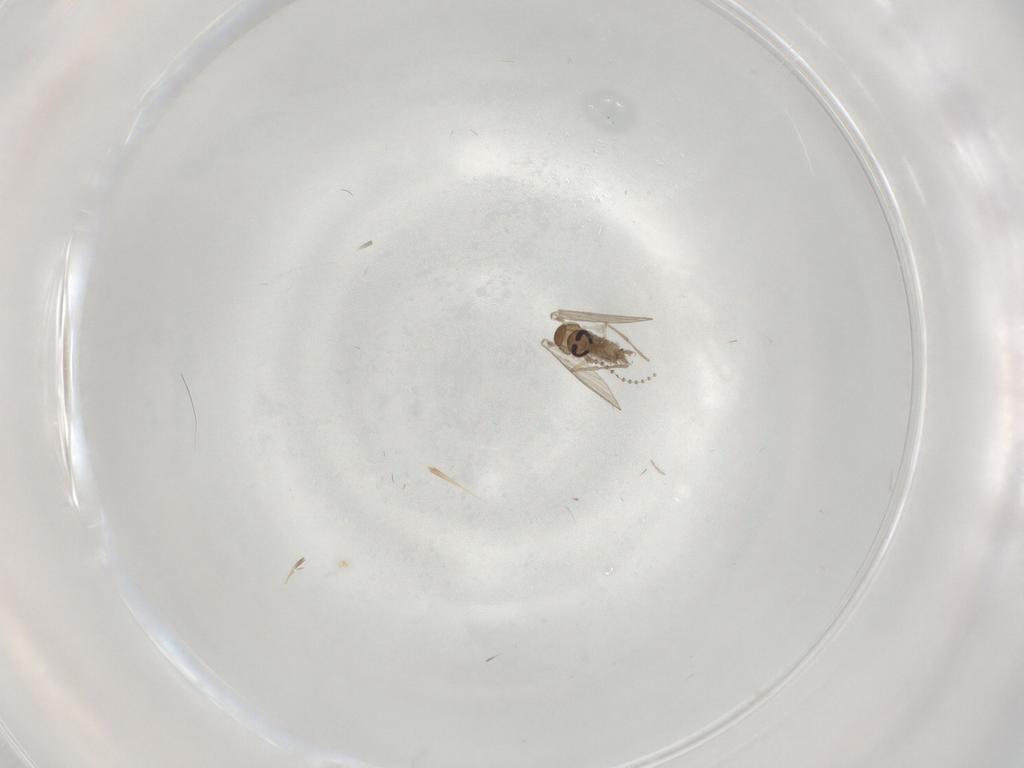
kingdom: Animalia
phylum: Arthropoda
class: Insecta
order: Diptera
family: Psychodidae
